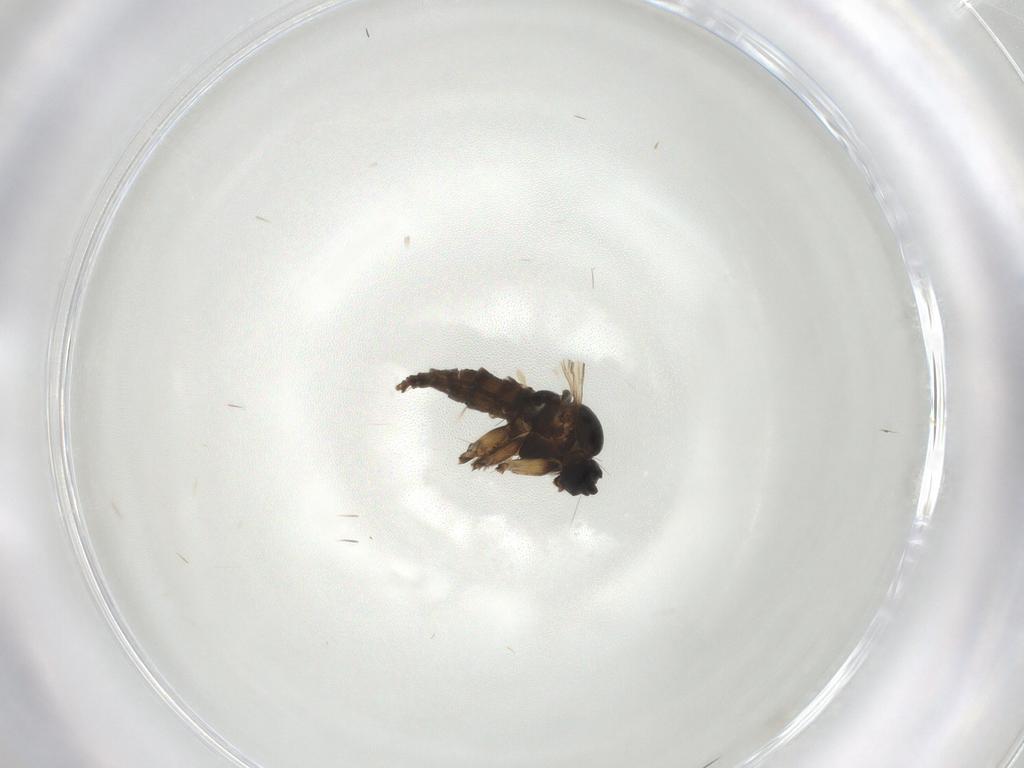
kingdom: Animalia
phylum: Arthropoda
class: Insecta
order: Diptera
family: Sciaridae
